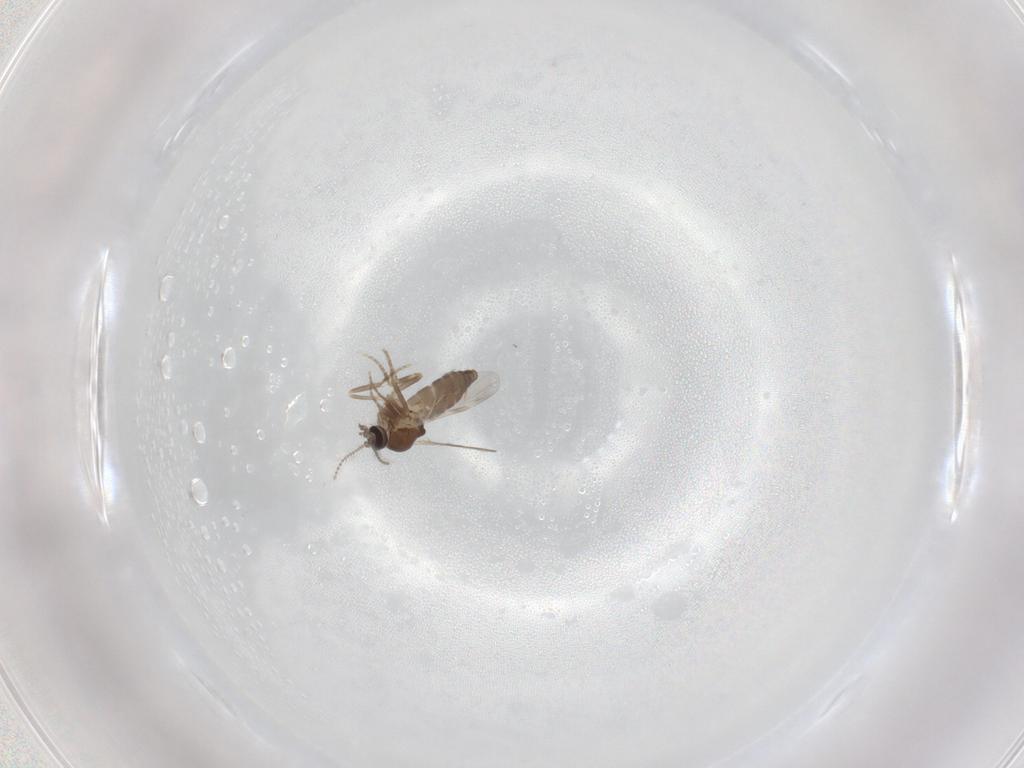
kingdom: Animalia
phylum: Arthropoda
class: Insecta
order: Diptera
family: Ceratopogonidae
